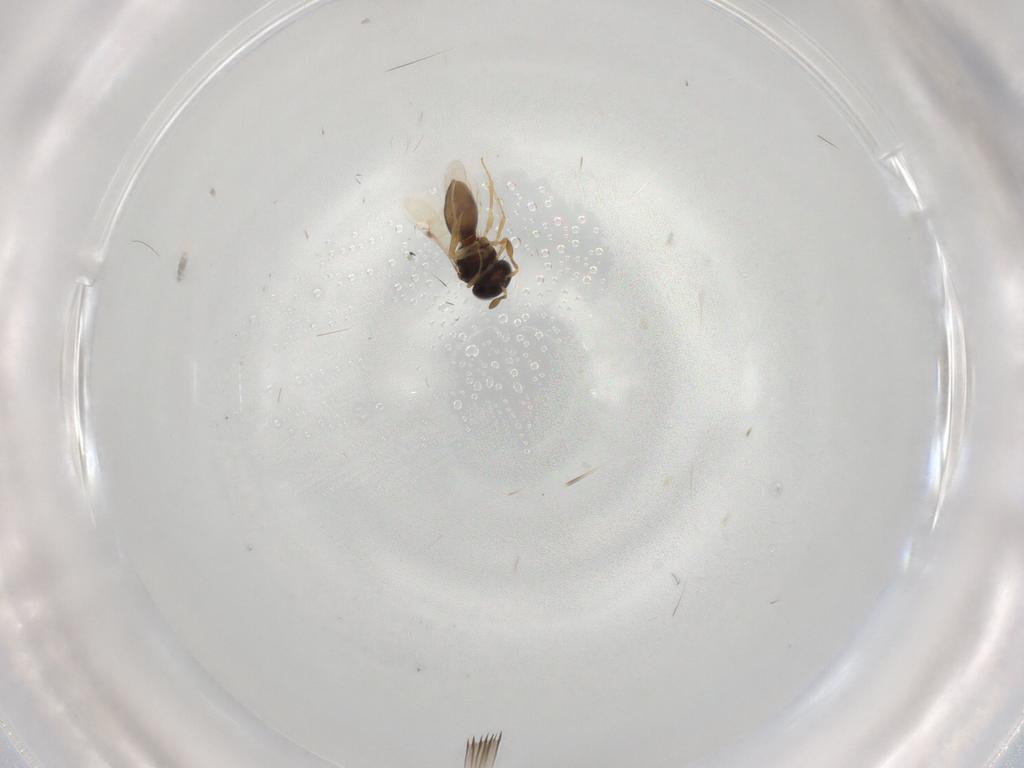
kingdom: Animalia
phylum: Arthropoda
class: Insecta
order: Hymenoptera
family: Scelionidae
